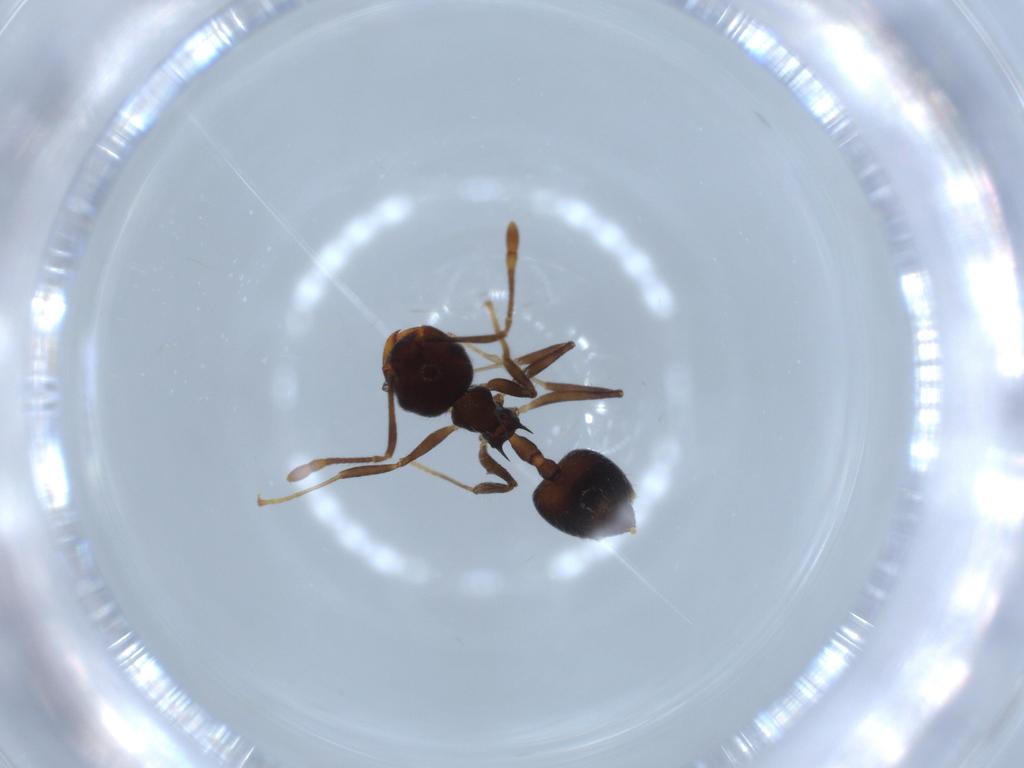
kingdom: Animalia
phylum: Arthropoda
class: Insecta
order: Hymenoptera
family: Formicidae
